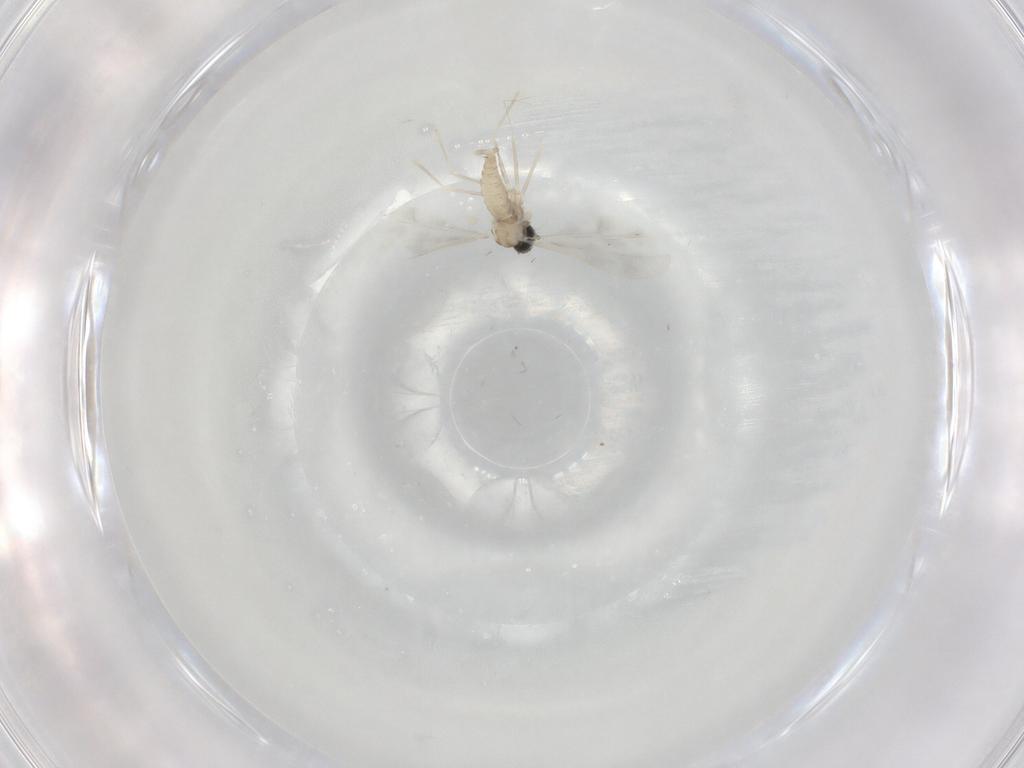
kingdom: Animalia
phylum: Arthropoda
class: Insecta
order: Diptera
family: Cecidomyiidae
